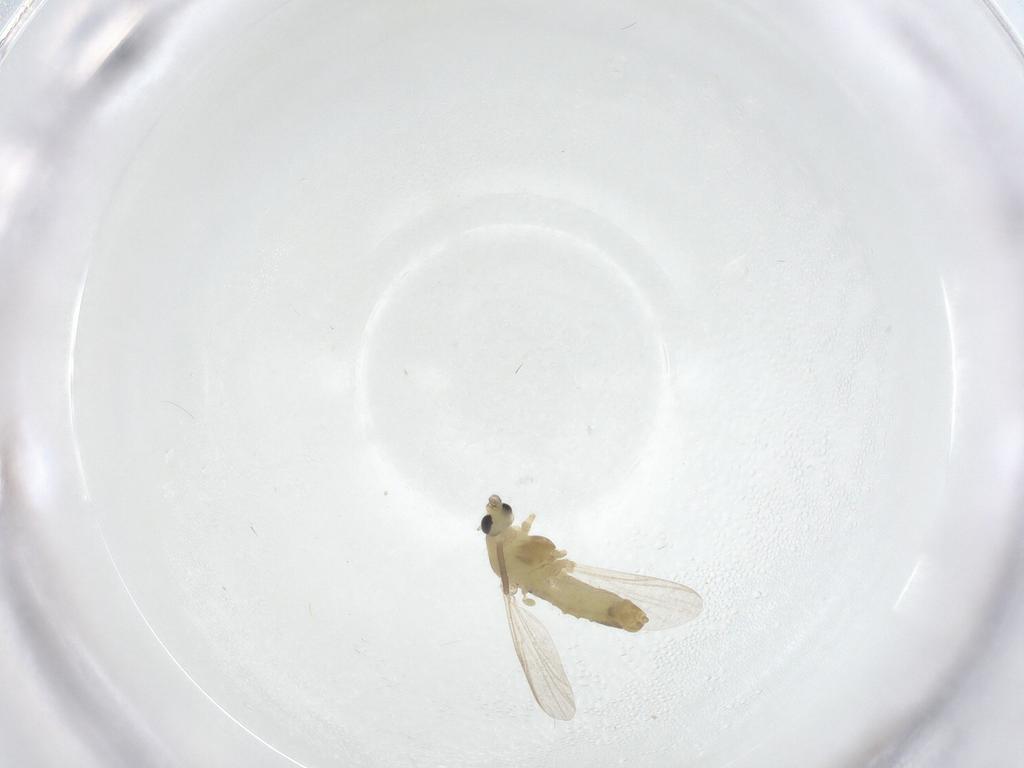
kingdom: Animalia
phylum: Arthropoda
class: Insecta
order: Diptera
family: Chironomidae
